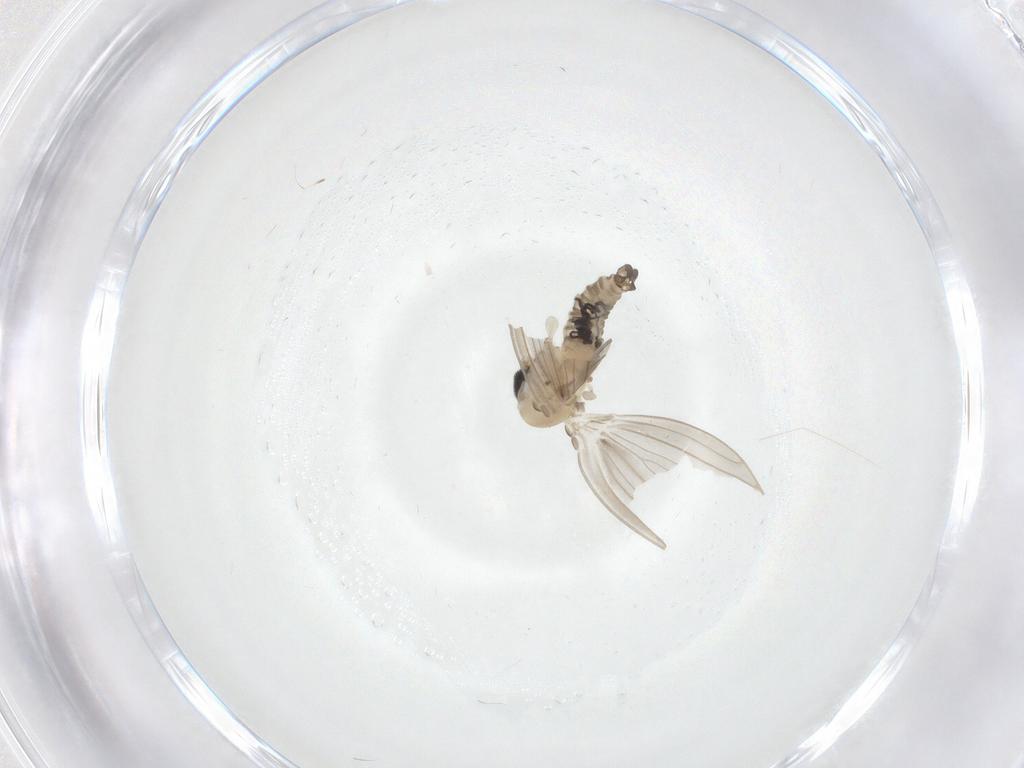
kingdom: Animalia
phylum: Arthropoda
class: Insecta
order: Diptera
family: Psychodidae
